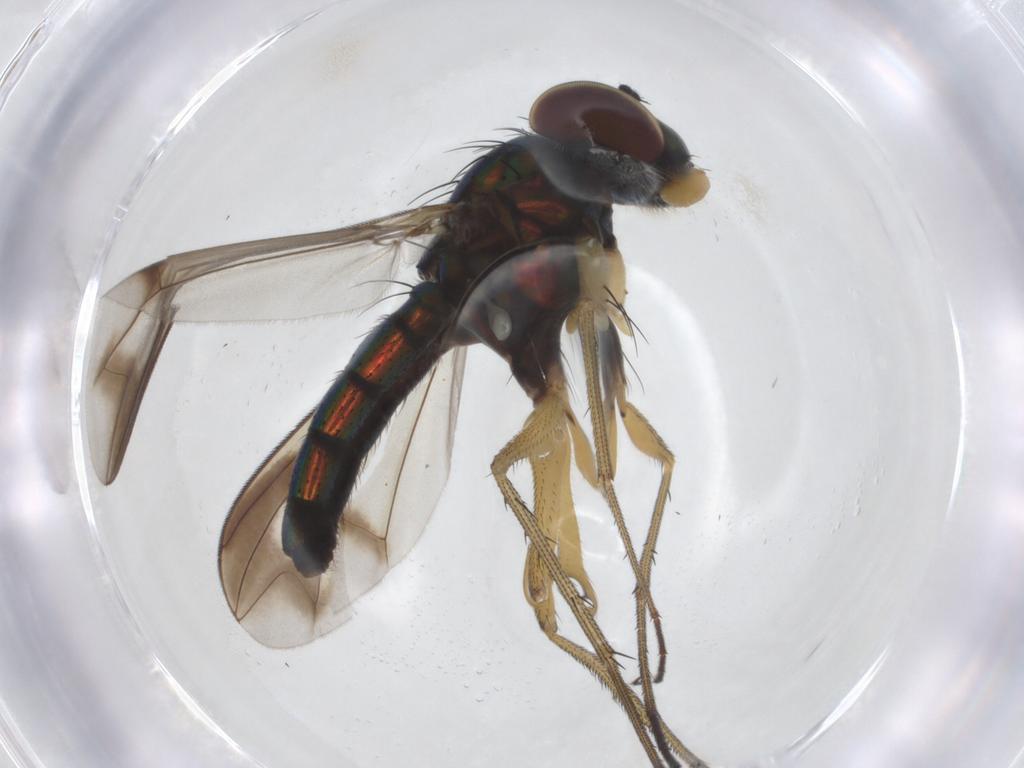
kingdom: Animalia
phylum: Arthropoda
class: Insecta
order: Diptera
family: Dolichopodidae
